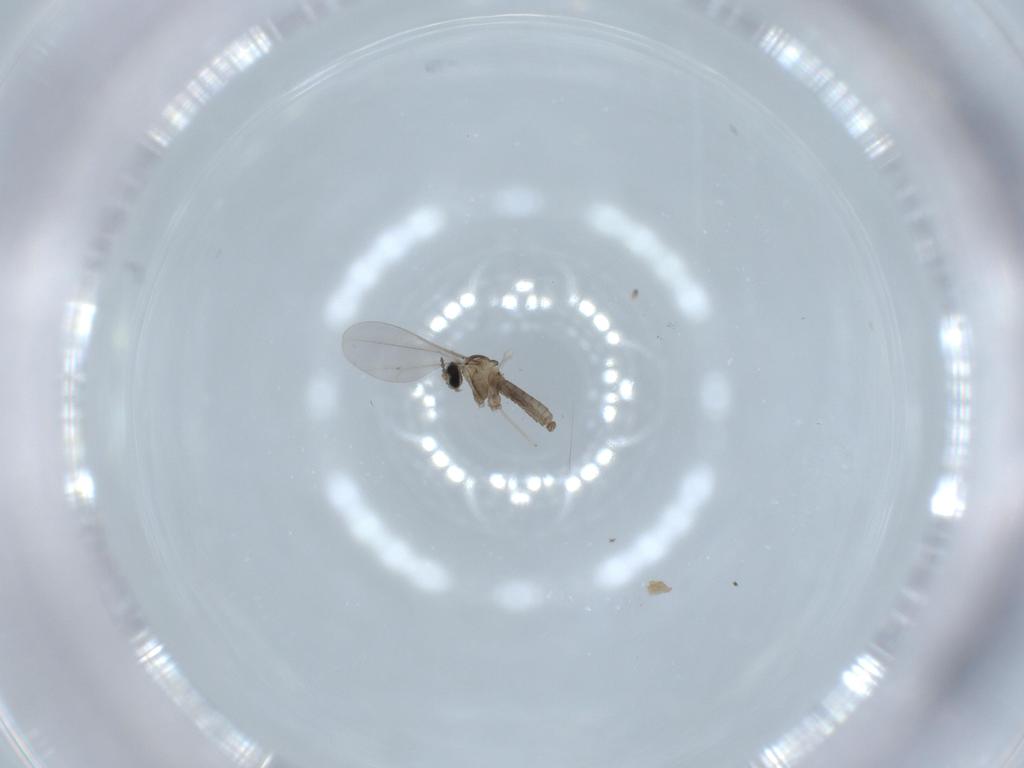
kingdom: Animalia
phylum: Arthropoda
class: Insecta
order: Diptera
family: Cecidomyiidae
